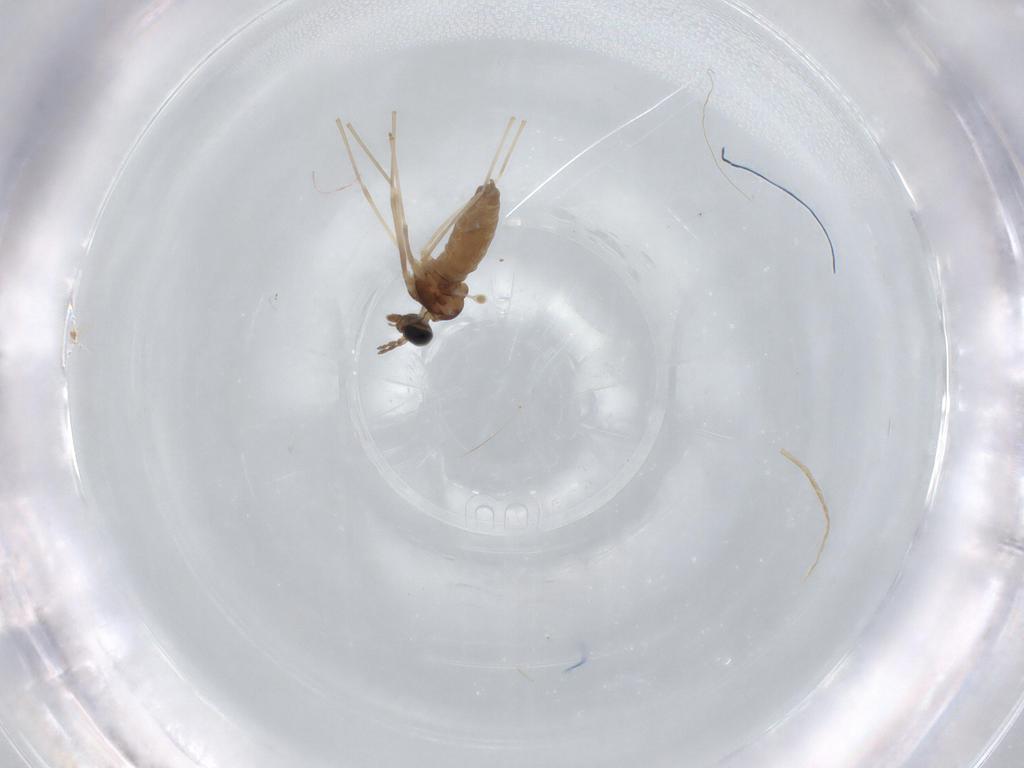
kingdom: Animalia
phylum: Arthropoda
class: Insecta
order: Diptera
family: Cecidomyiidae
